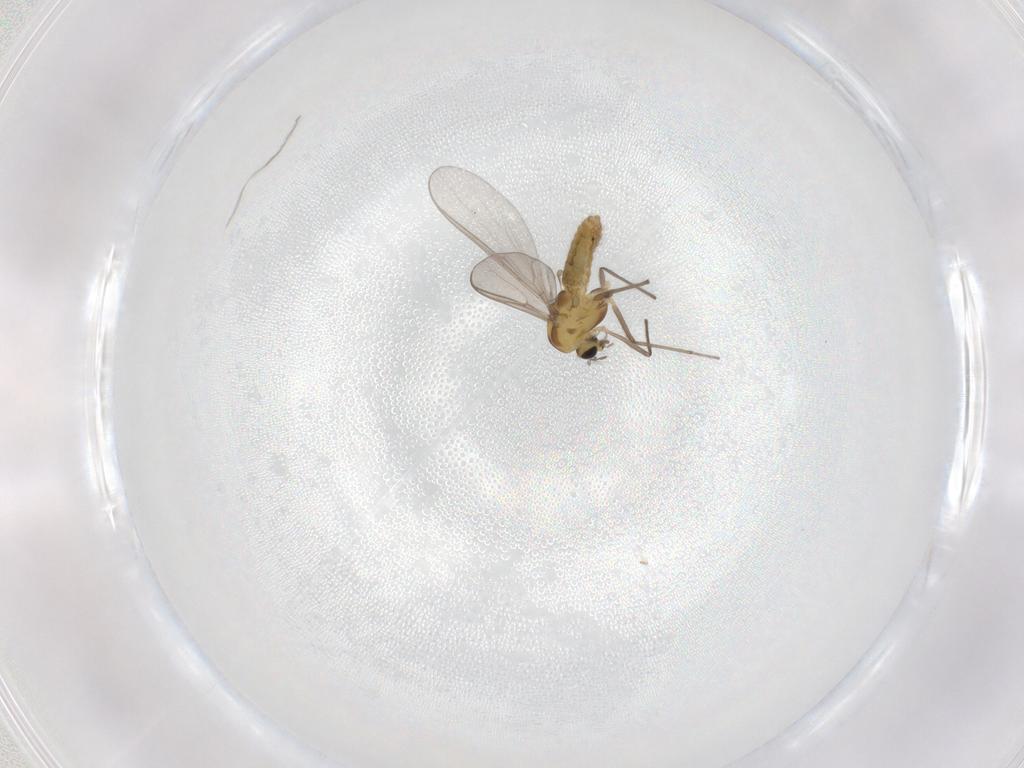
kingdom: Animalia
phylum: Arthropoda
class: Insecta
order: Diptera
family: Chironomidae
